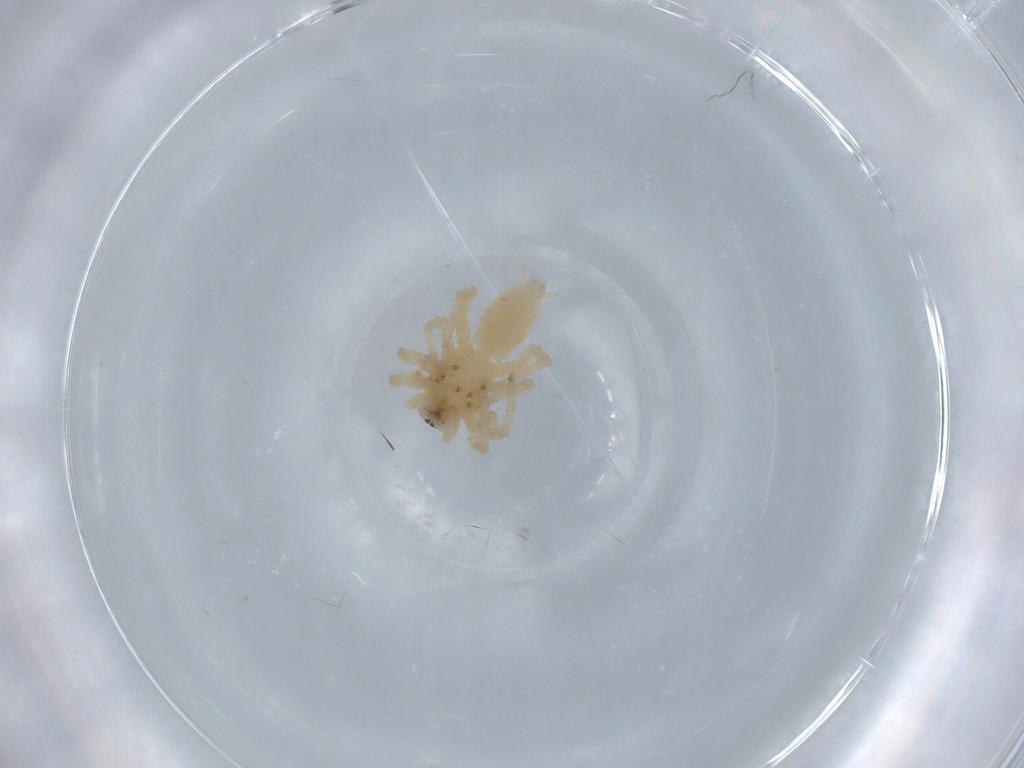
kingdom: Animalia
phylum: Arthropoda
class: Arachnida
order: Araneae
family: Anyphaenidae
